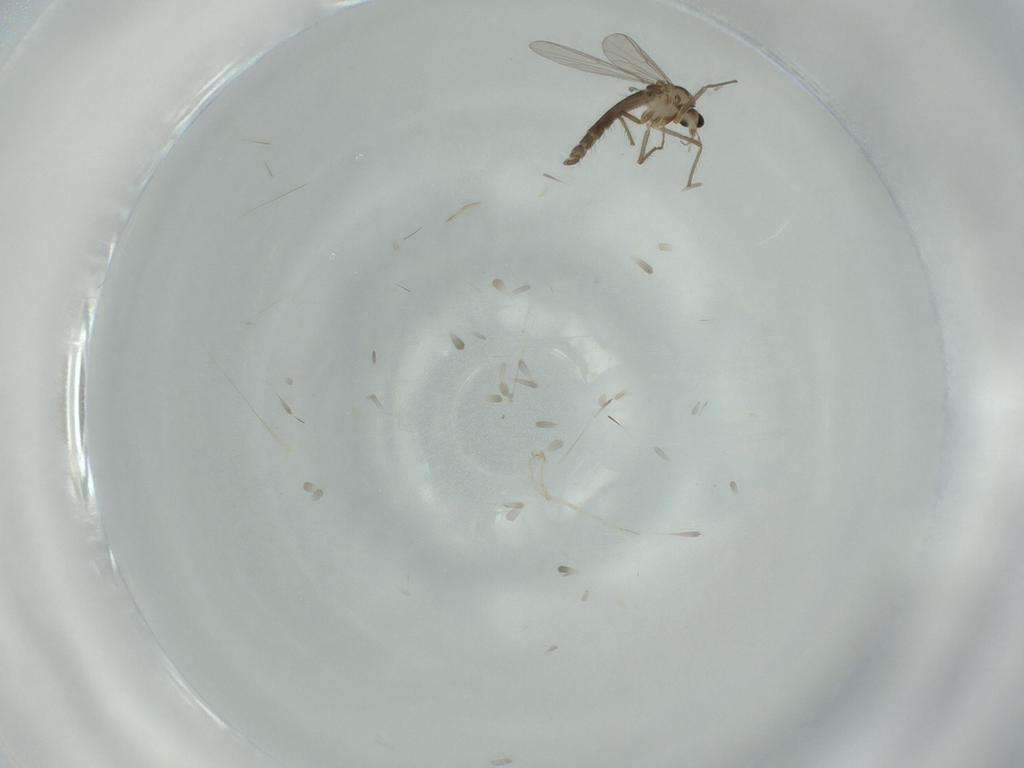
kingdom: Animalia
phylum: Arthropoda
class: Insecta
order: Diptera
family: Chironomidae
